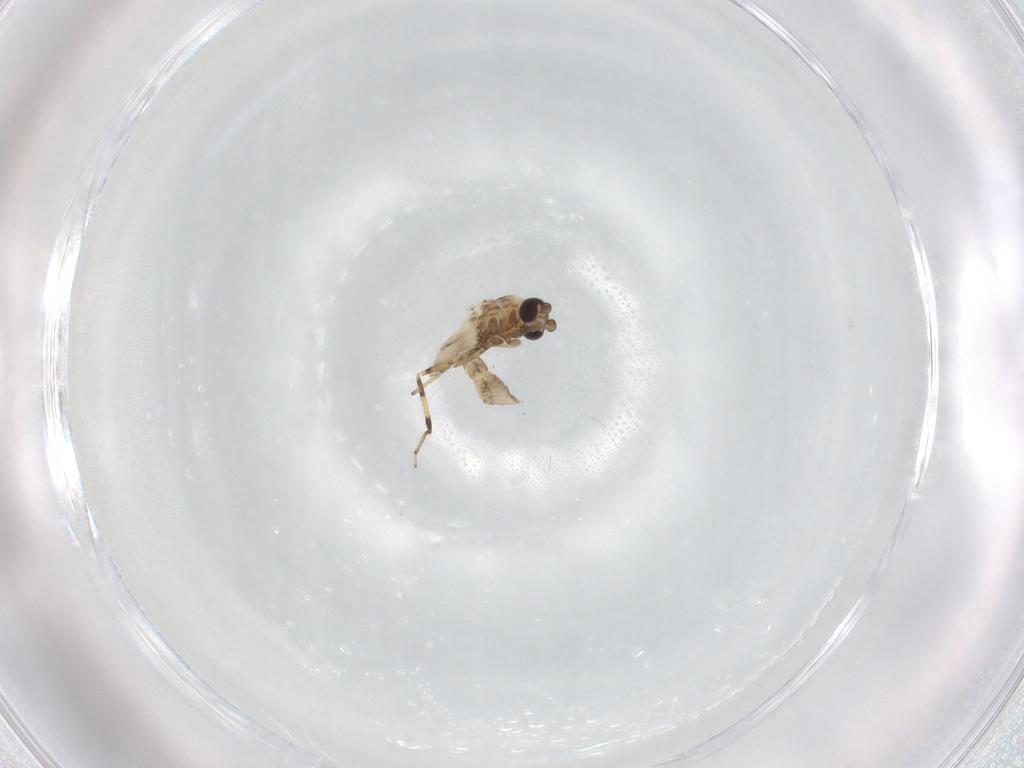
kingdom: Animalia
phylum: Arthropoda
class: Insecta
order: Diptera
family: Ceratopogonidae
